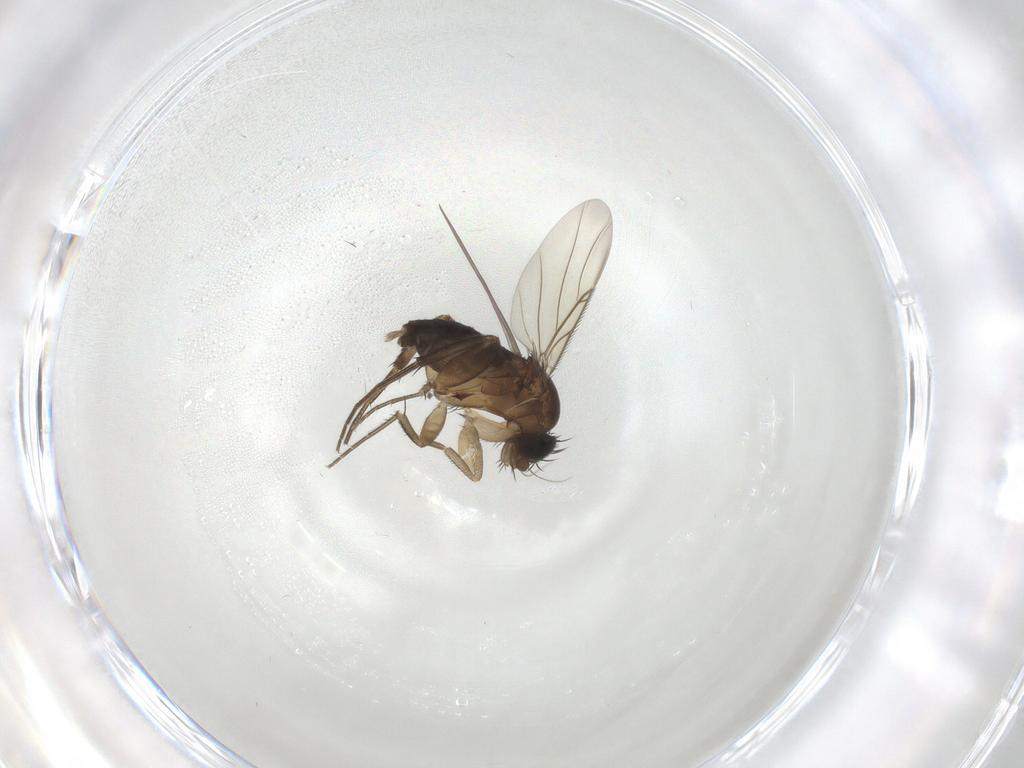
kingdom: Animalia
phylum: Arthropoda
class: Insecta
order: Diptera
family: Phoridae
